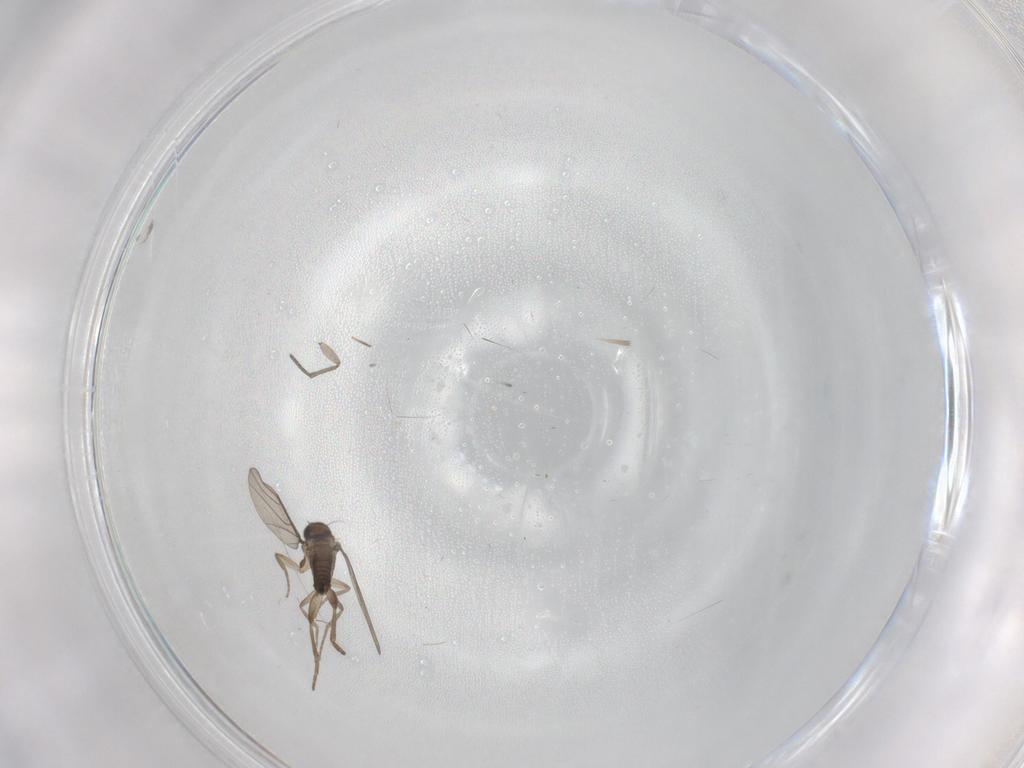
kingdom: Animalia
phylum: Arthropoda
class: Insecta
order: Diptera
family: Phoridae
